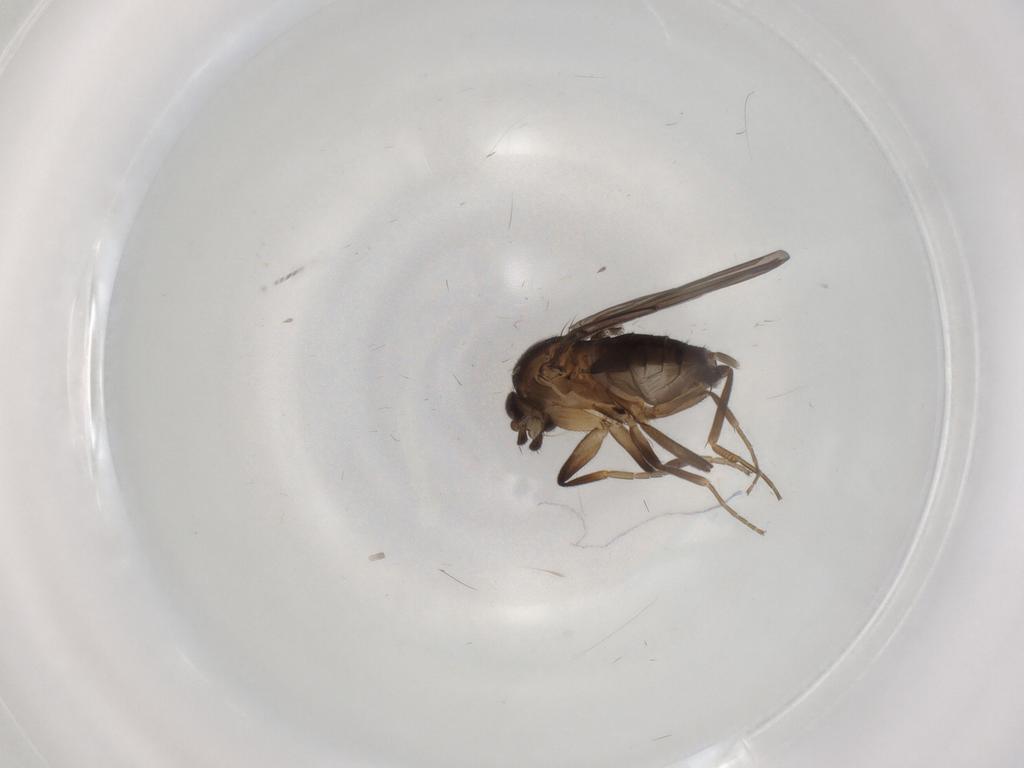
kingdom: Animalia
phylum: Arthropoda
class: Insecta
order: Diptera
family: Phoridae
